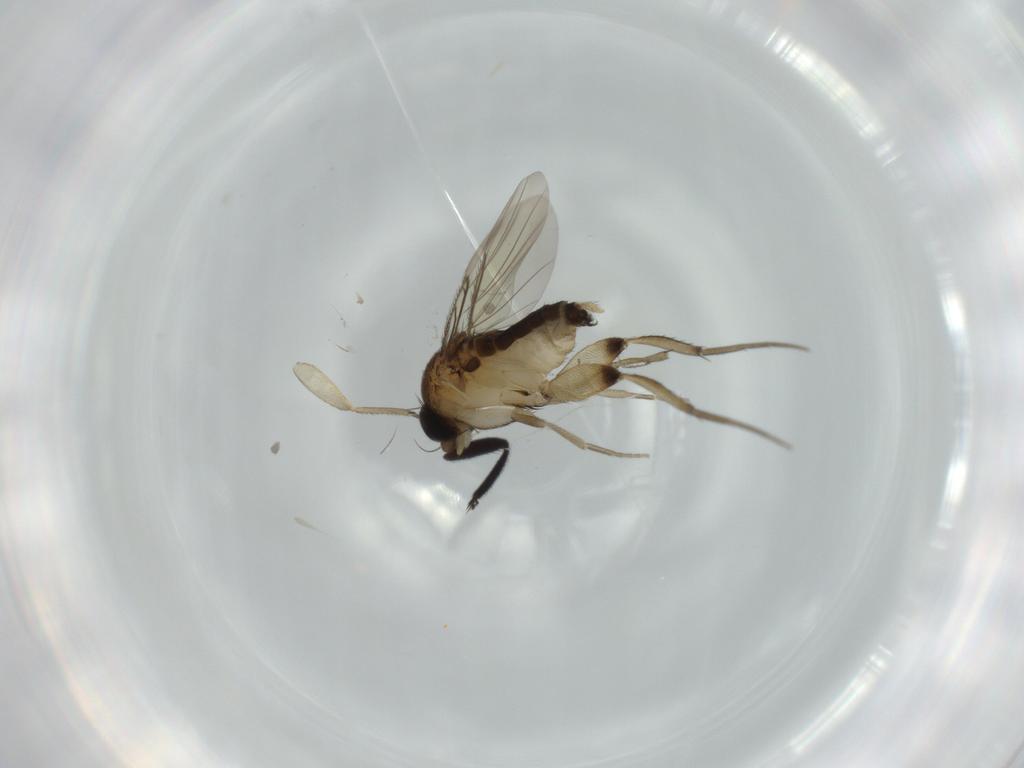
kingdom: Animalia
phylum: Arthropoda
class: Insecta
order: Diptera
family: Phoridae
